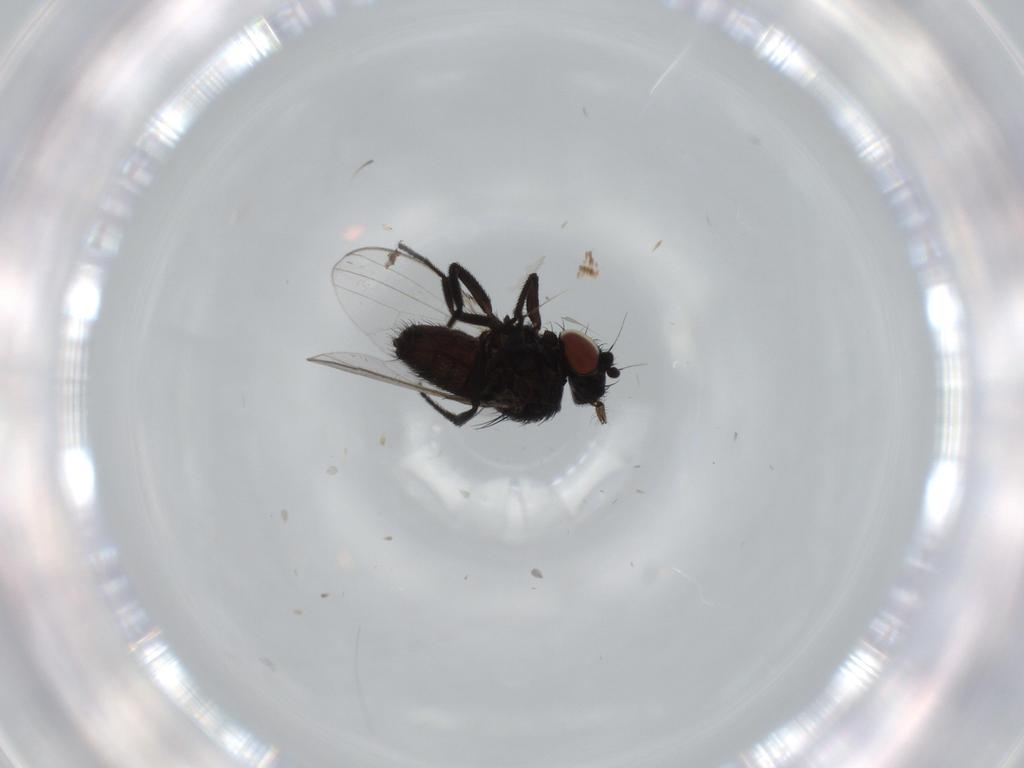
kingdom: Animalia
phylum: Arthropoda
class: Insecta
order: Diptera
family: Milichiidae
